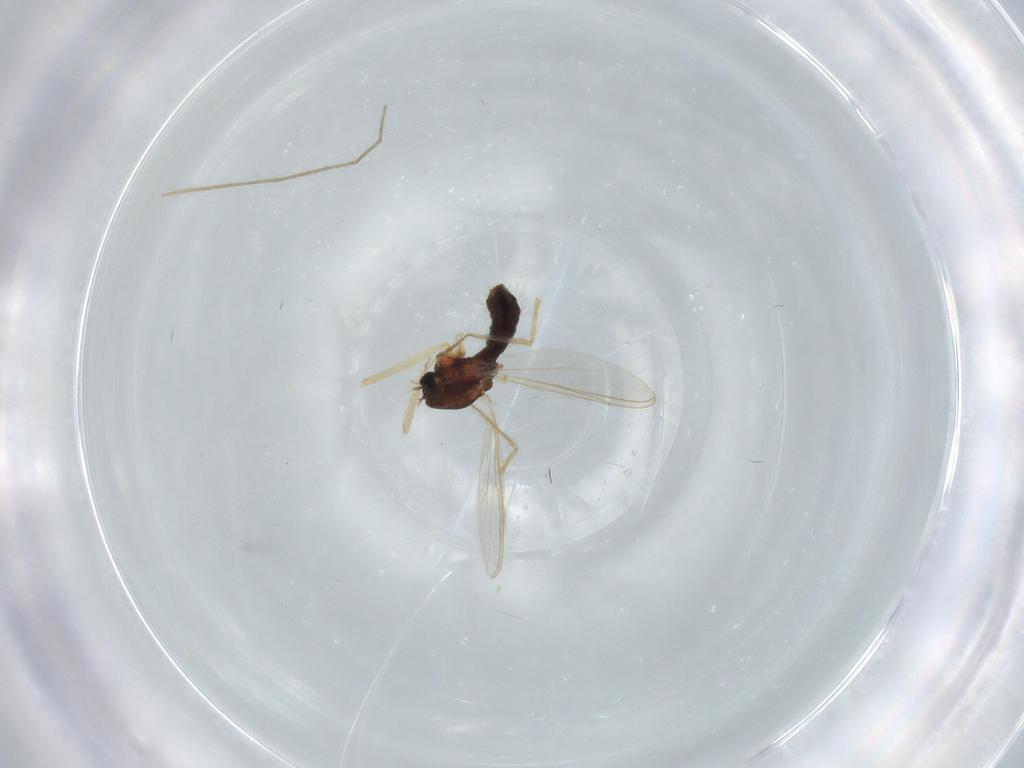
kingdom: Animalia
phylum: Arthropoda
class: Insecta
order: Diptera
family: Chironomidae
